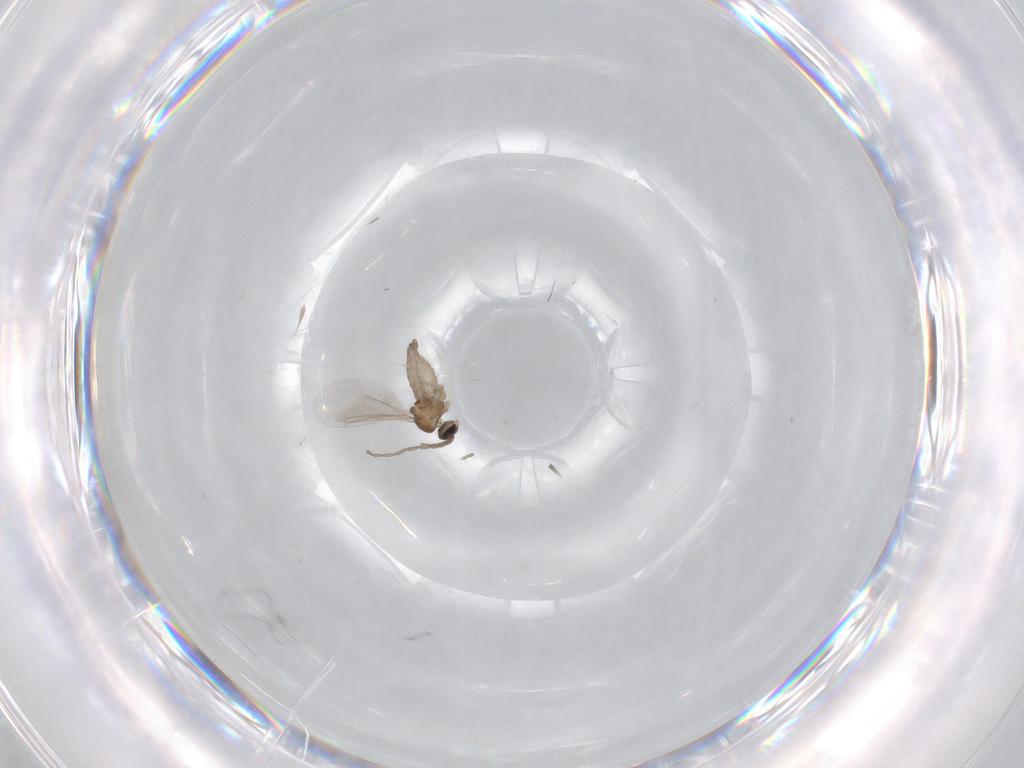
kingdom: Animalia
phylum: Arthropoda
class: Insecta
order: Diptera
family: Cecidomyiidae
